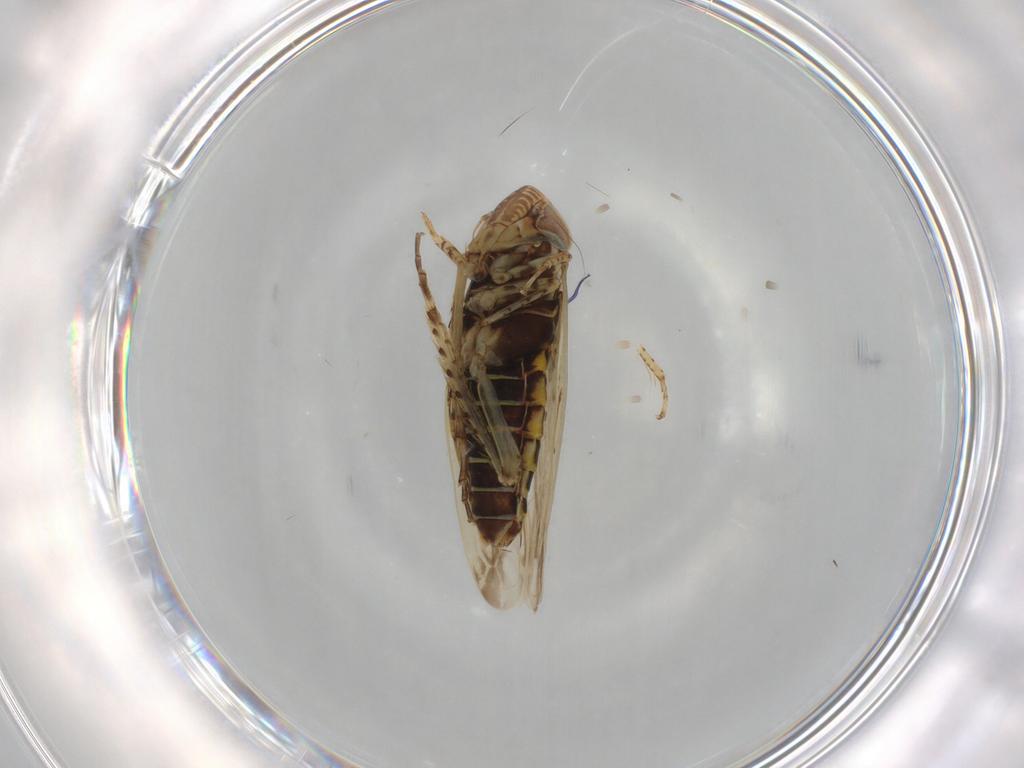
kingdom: Animalia
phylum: Arthropoda
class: Insecta
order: Hemiptera
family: Cicadellidae
